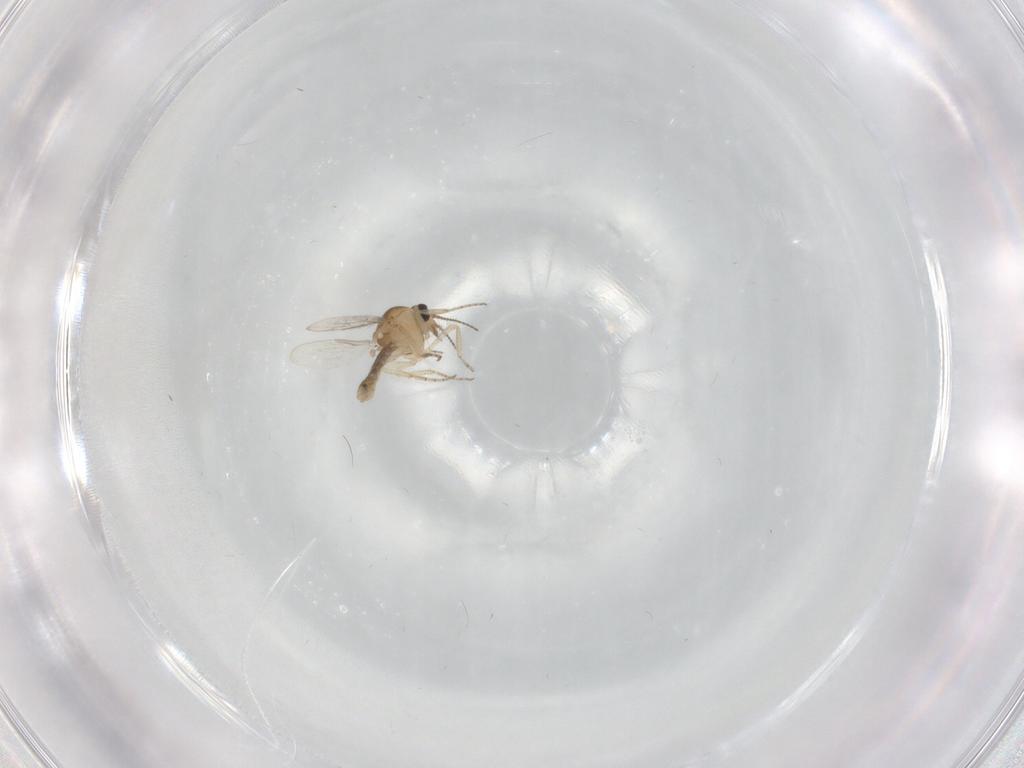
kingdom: Animalia
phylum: Arthropoda
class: Insecta
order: Diptera
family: Ceratopogonidae
